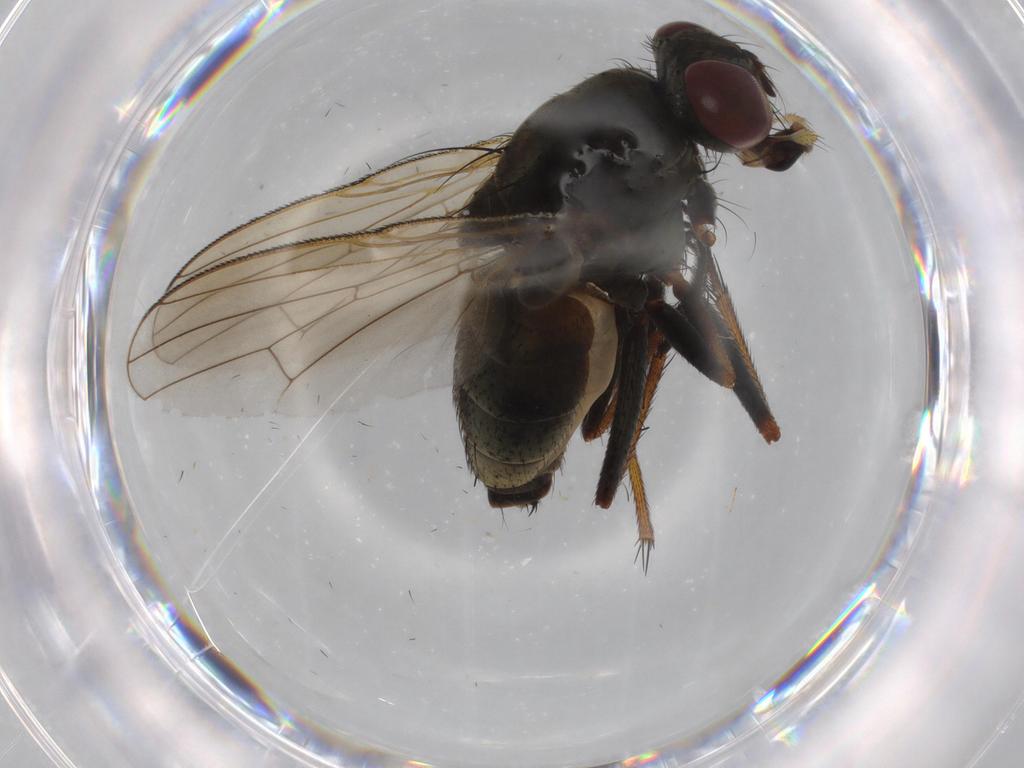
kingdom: Animalia
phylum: Arthropoda
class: Insecta
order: Diptera
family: Muscidae
